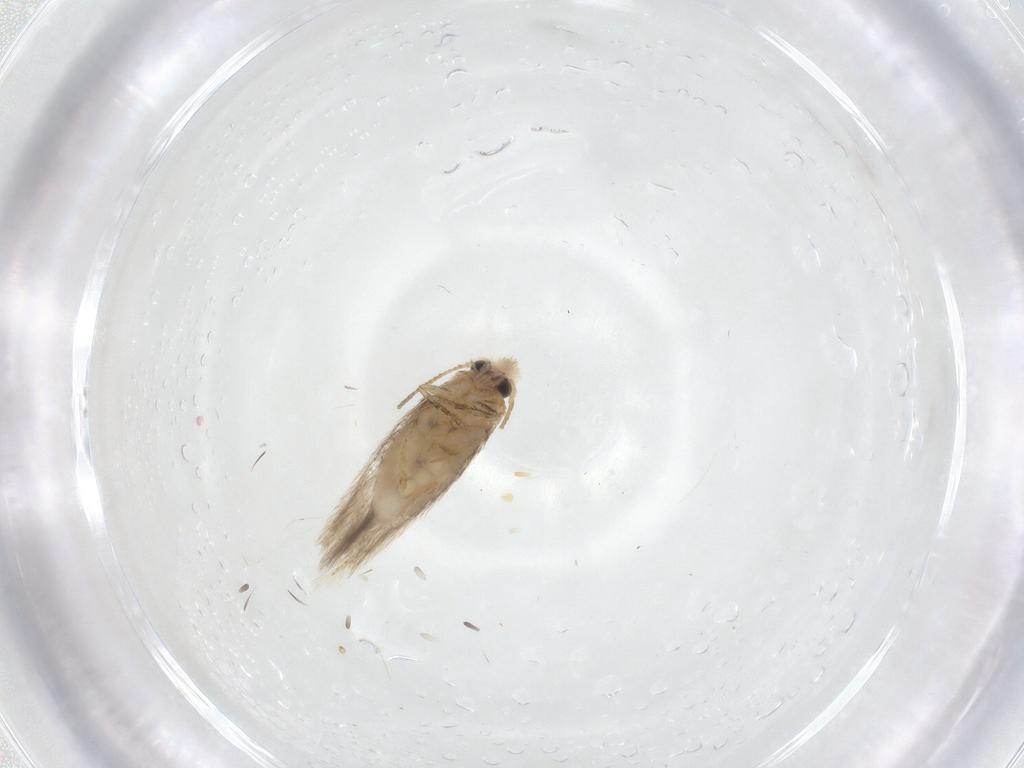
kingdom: Animalia
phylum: Arthropoda
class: Insecta
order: Lepidoptera
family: Nepticulidae
